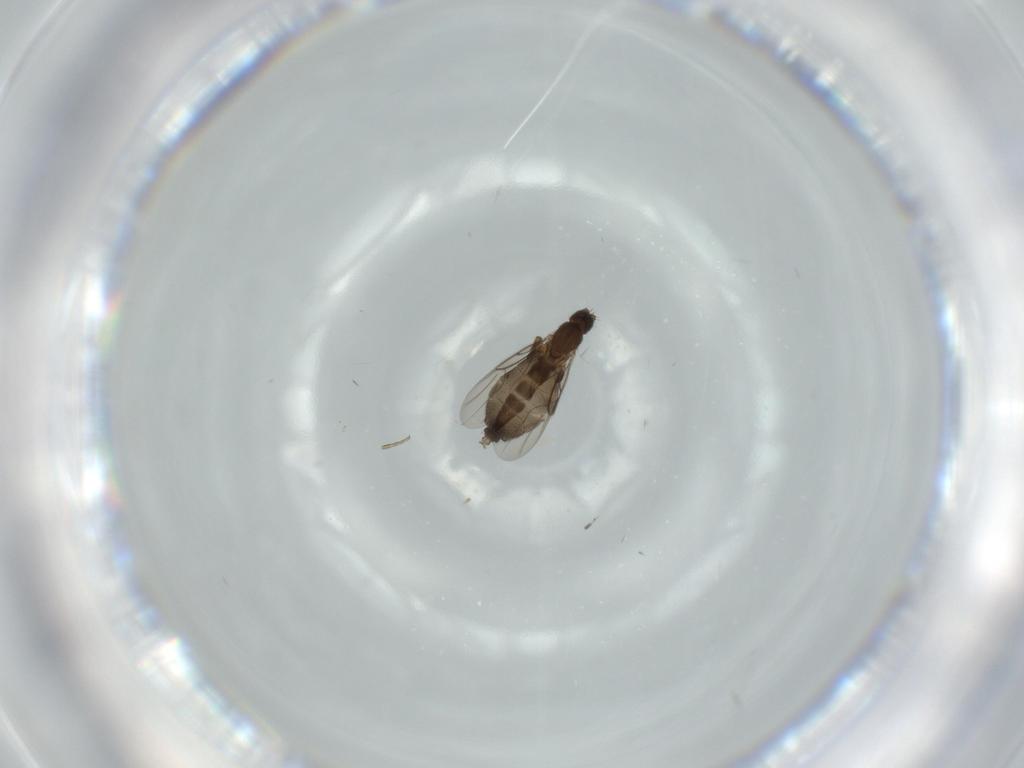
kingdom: Animalia
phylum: Arthropoda
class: Insecta
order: Diptera
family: Phoridae
